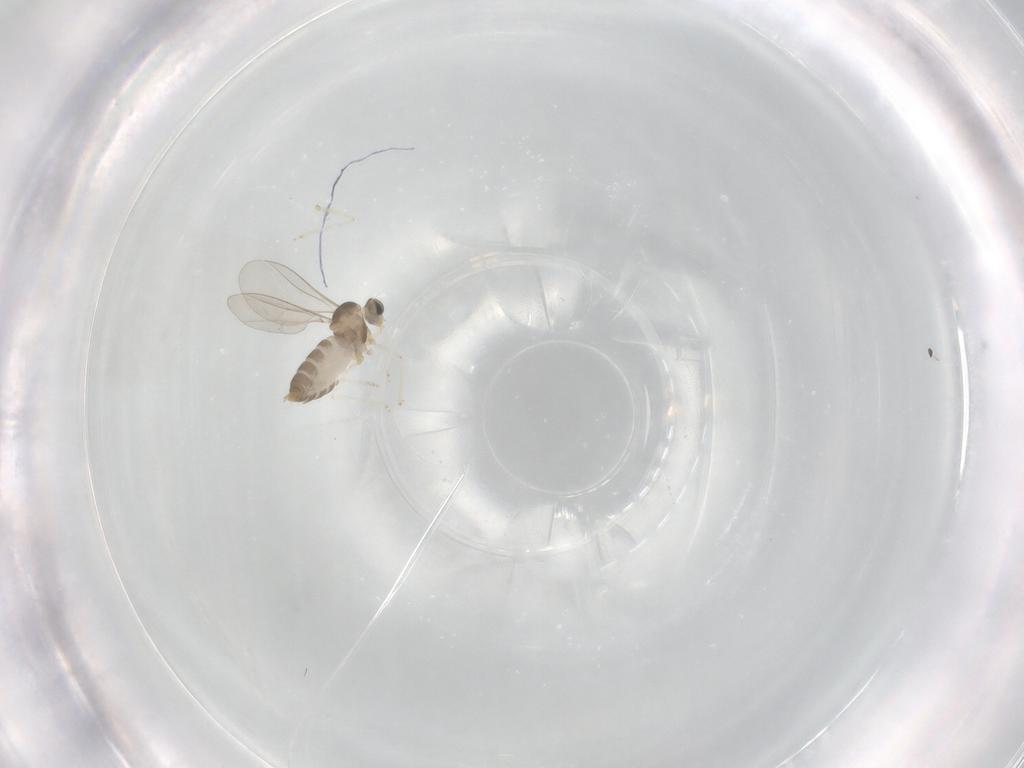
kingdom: Animalia
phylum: Arthropoda
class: Insecta
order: Diptera
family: Cecidomyiidae
